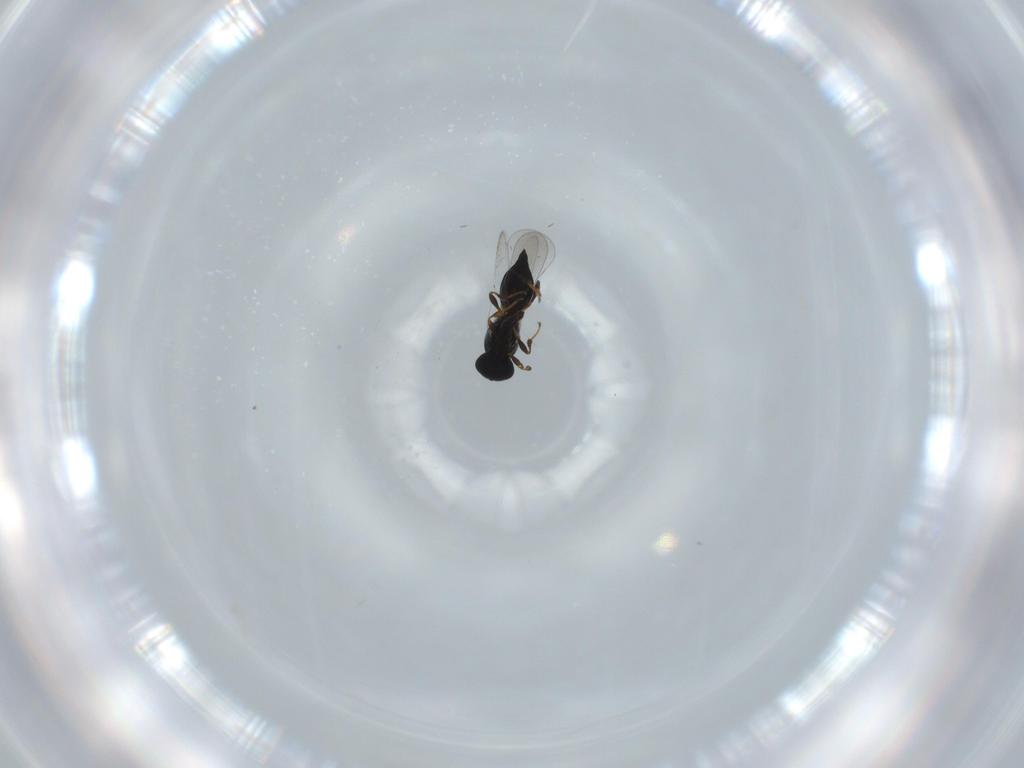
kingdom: Animalia
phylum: Arthropoda
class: Insecta
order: Hymenoptera
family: Platygastridae
